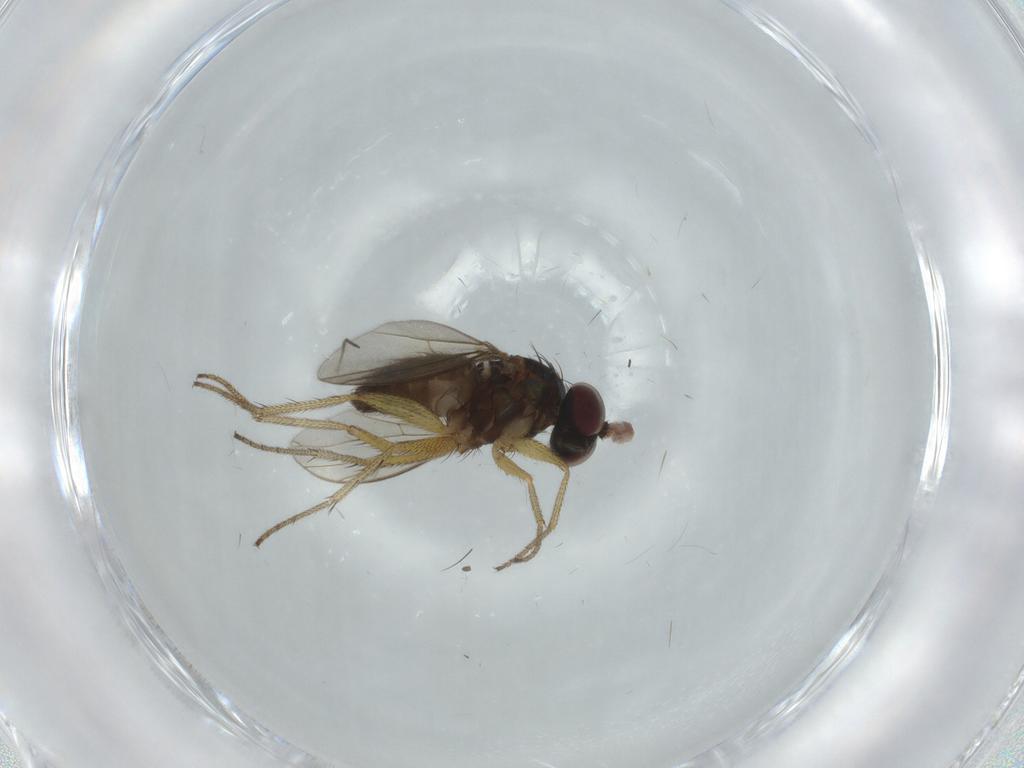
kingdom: Animalia
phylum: Arthropoda
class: Insecta
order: Diptera
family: Dolichopodidae
